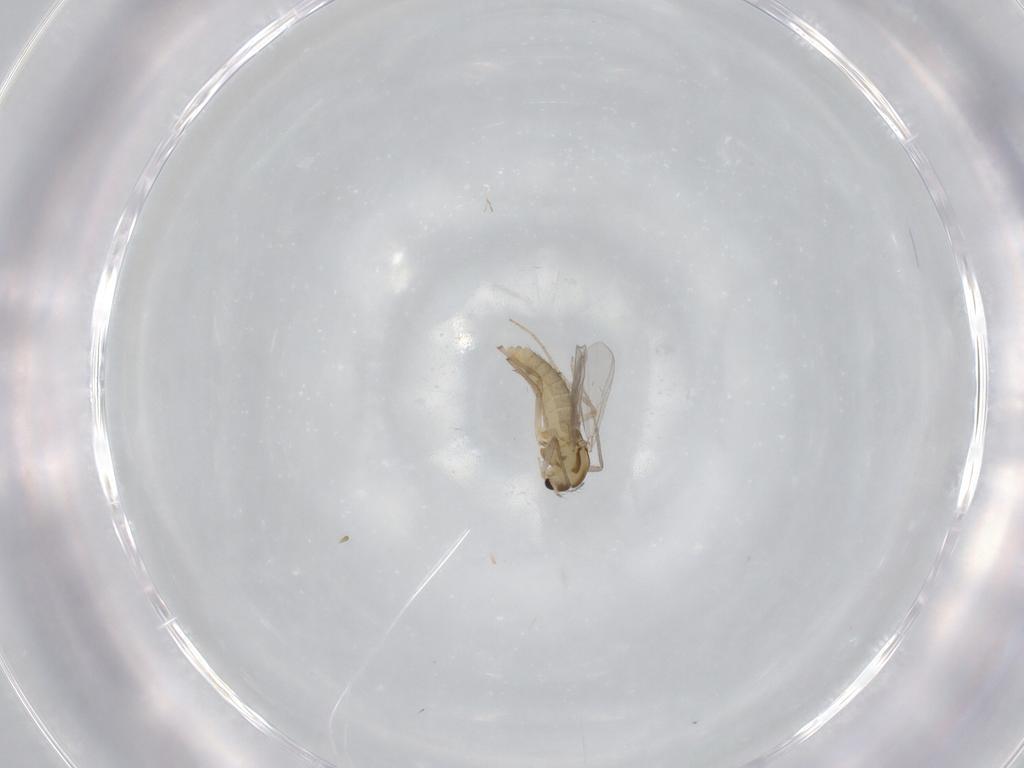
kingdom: Animalia
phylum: Arthropoda
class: Insecta
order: Diptera
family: Chironomidae
